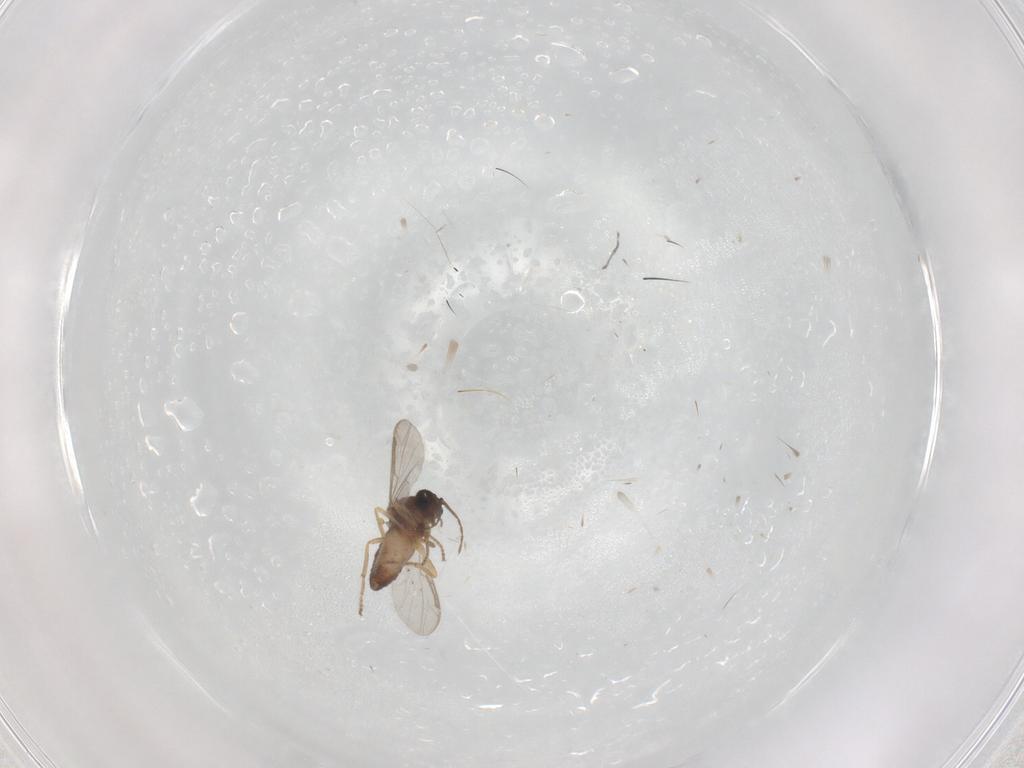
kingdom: Animalia
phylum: Arthropoda
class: Insecta
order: Diptera
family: Ceratopogonidae
